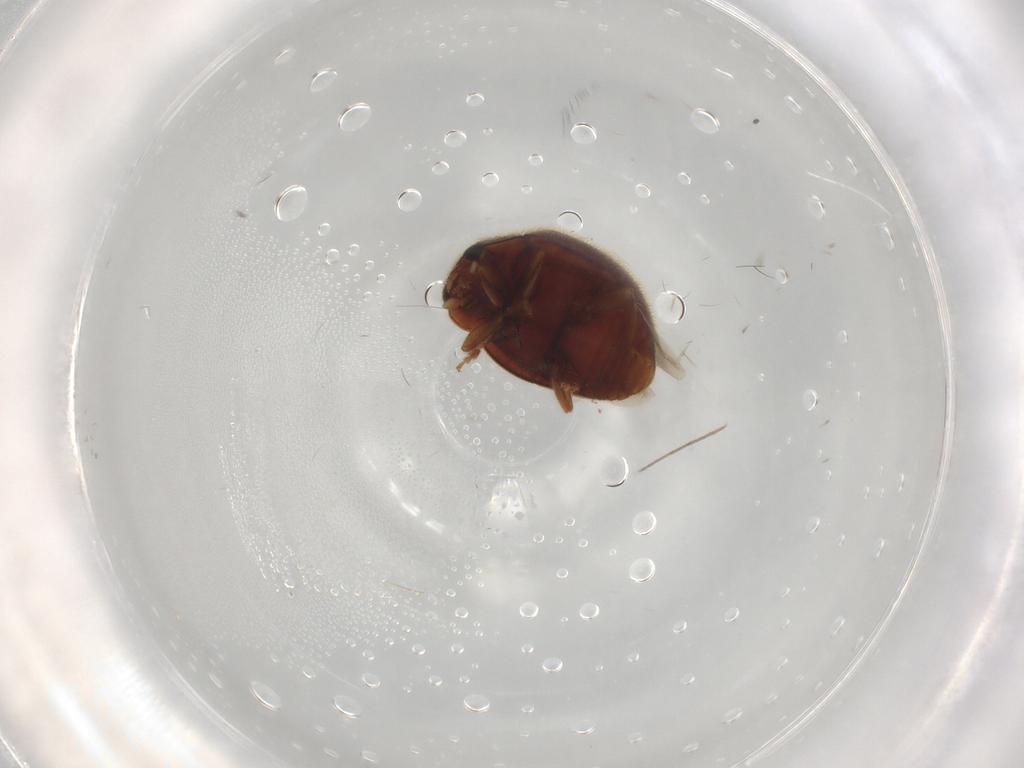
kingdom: Animalia
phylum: Arthropoda
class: Insecta
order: Coleoptera
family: Coccinellidae
